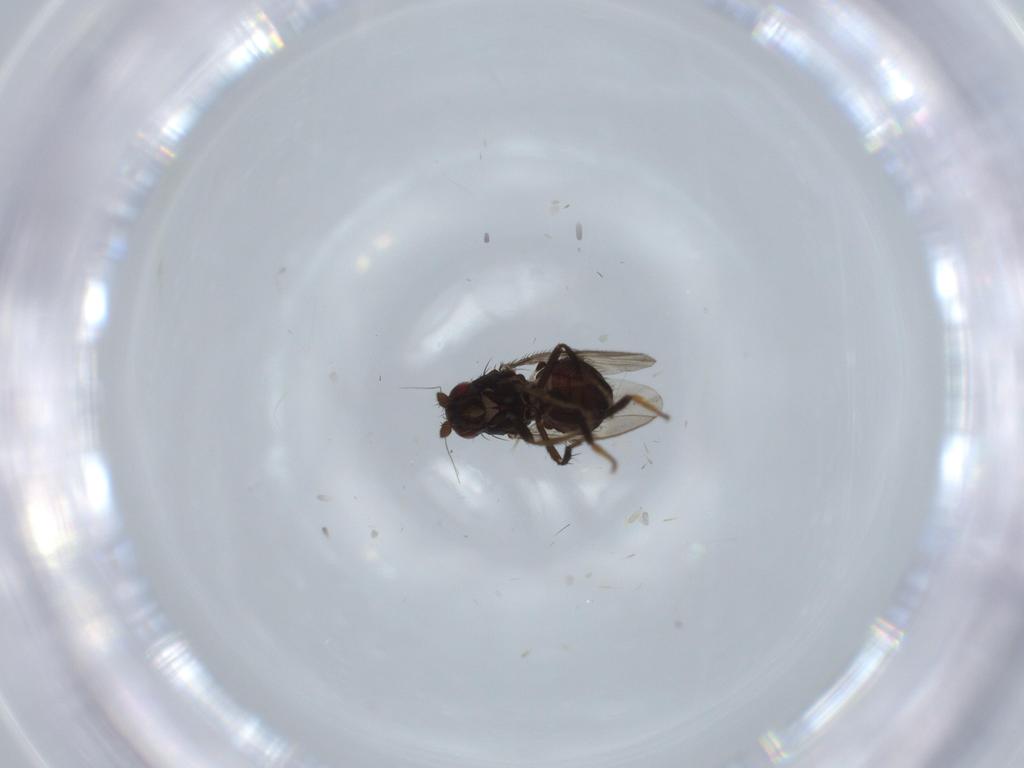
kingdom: Animalia
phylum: Arthropoda
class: Insecta
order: Diptera
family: Sphaeroceridae
